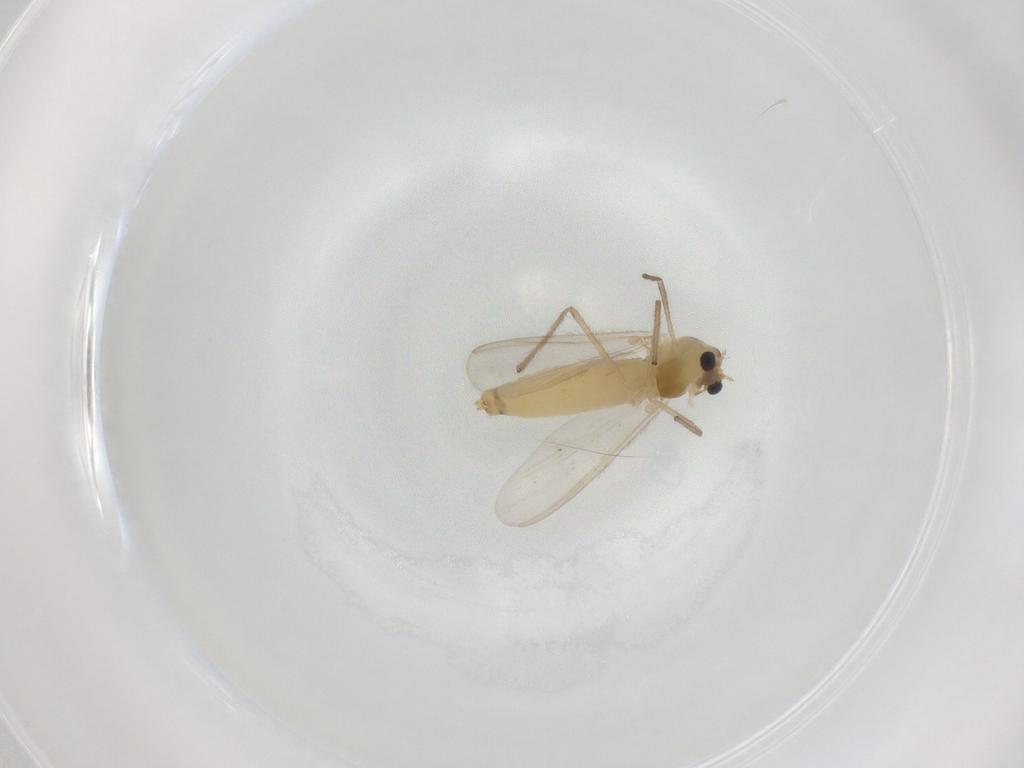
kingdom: Animalia
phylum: Arthropoda
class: Insecta
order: Diptera
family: Chironomidae
